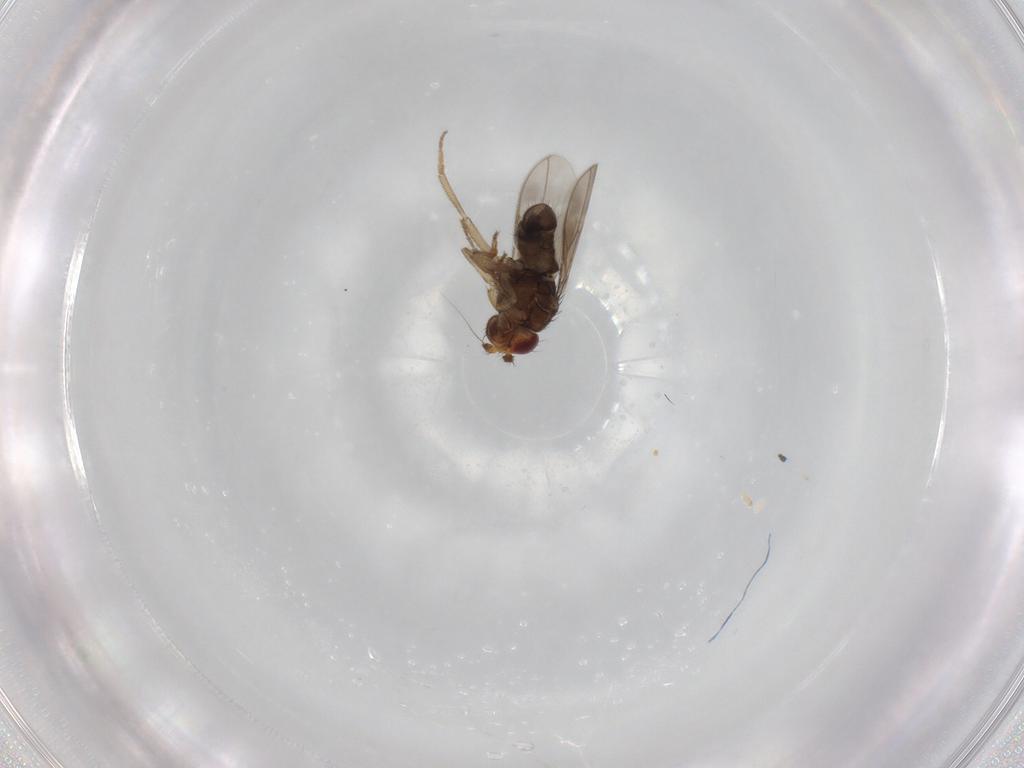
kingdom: Animalia
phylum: Arthropoda
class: Insecta
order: Diptera
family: Sphaeroceridae
